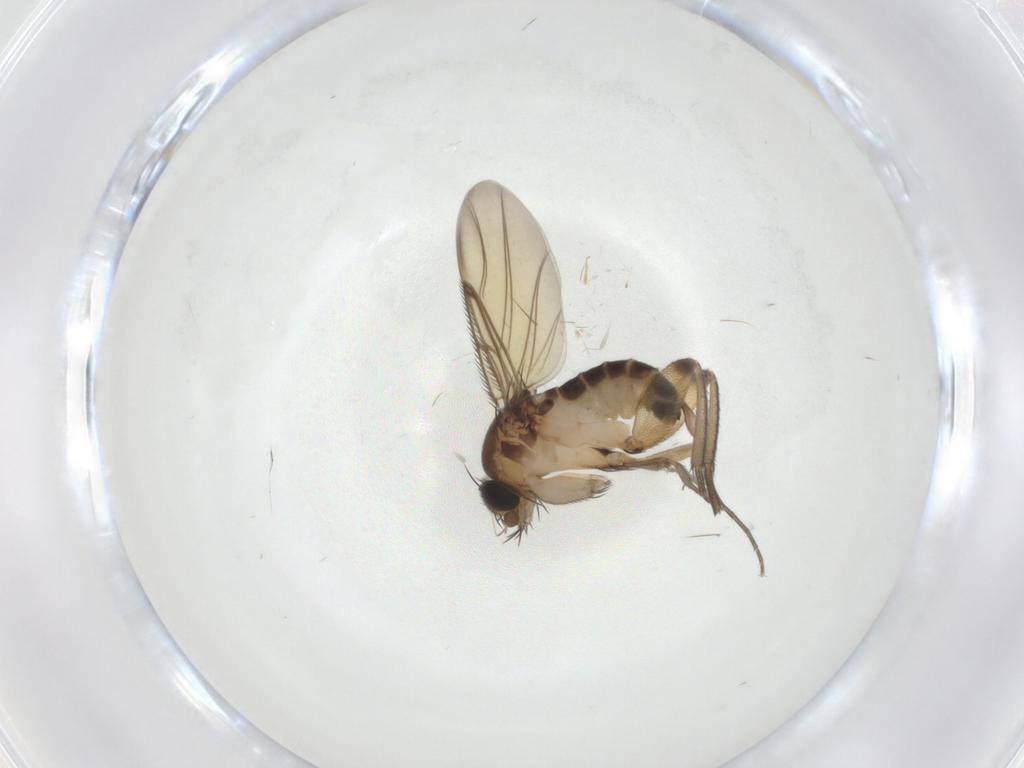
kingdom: Animalia
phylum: Arthropoda
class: Insecta
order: Diptera
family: Phoridae
